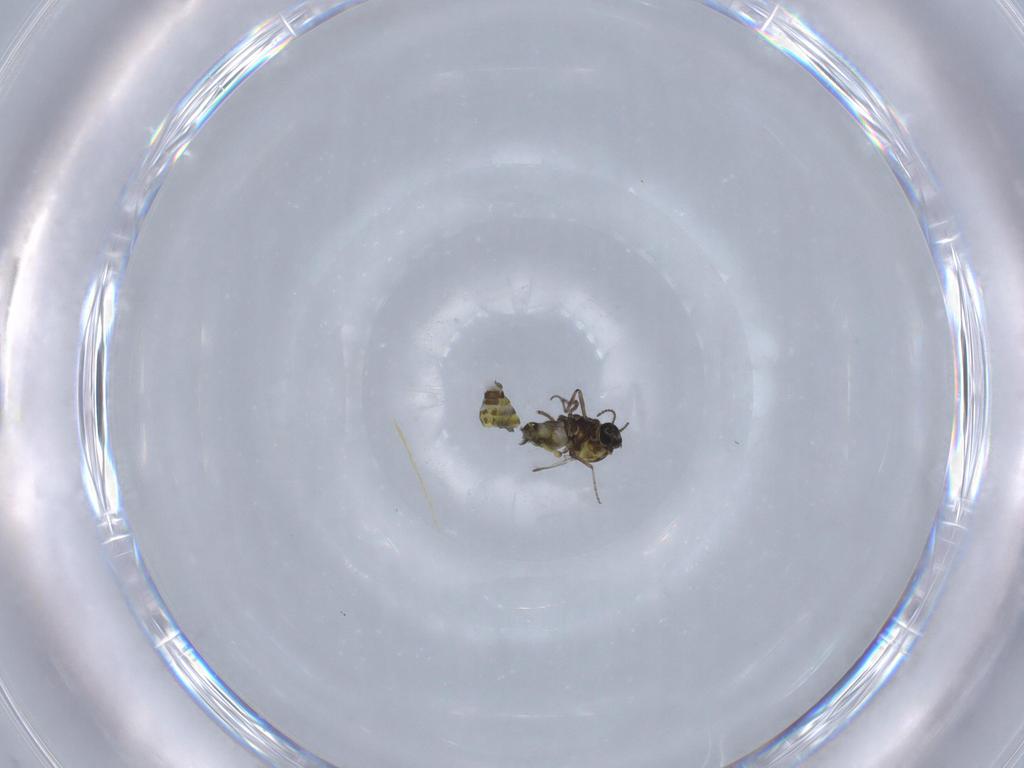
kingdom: Animalia
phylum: Arthropoda
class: Insecta
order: Diptera
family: Ceratopogonidae
